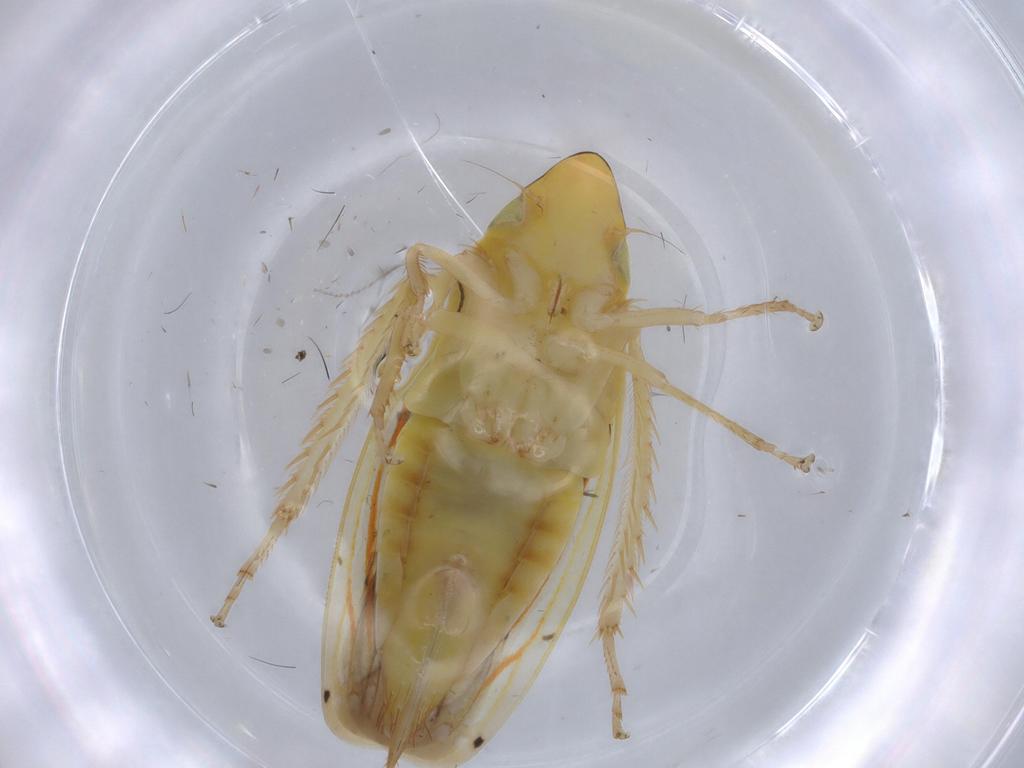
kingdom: Animalia
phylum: Arthropoda
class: Insecta
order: Hemiptera
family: Cicadellidae
